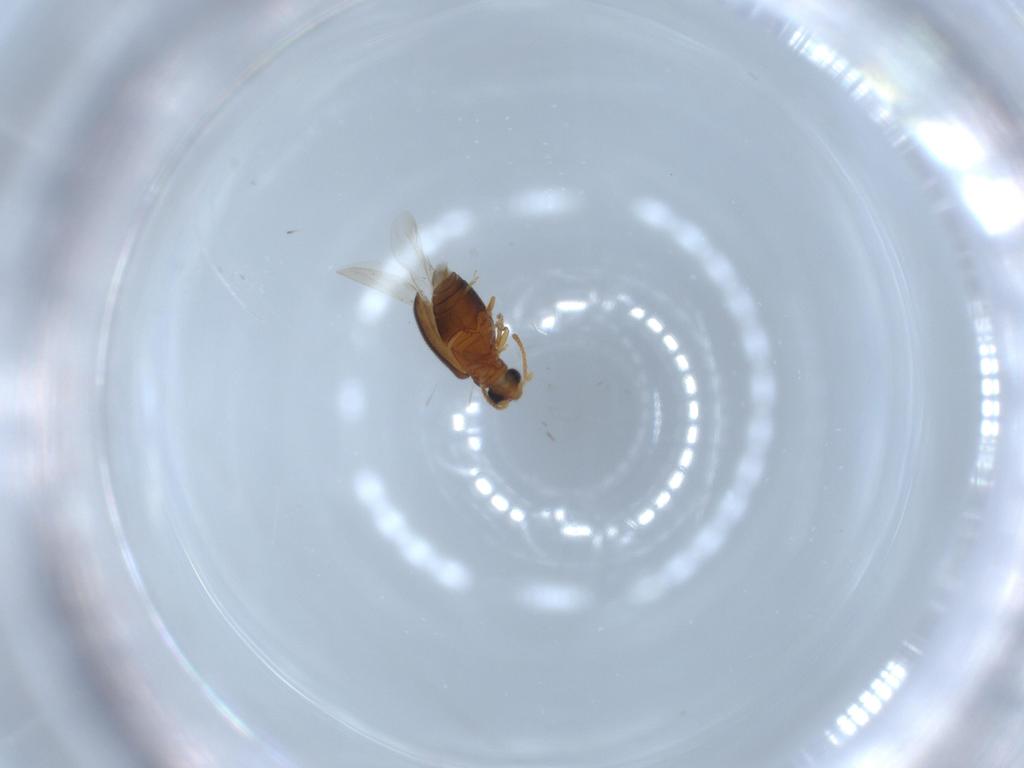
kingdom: Animalia
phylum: Arthropoda
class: Insecta
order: Coleoptera
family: Aderidae
